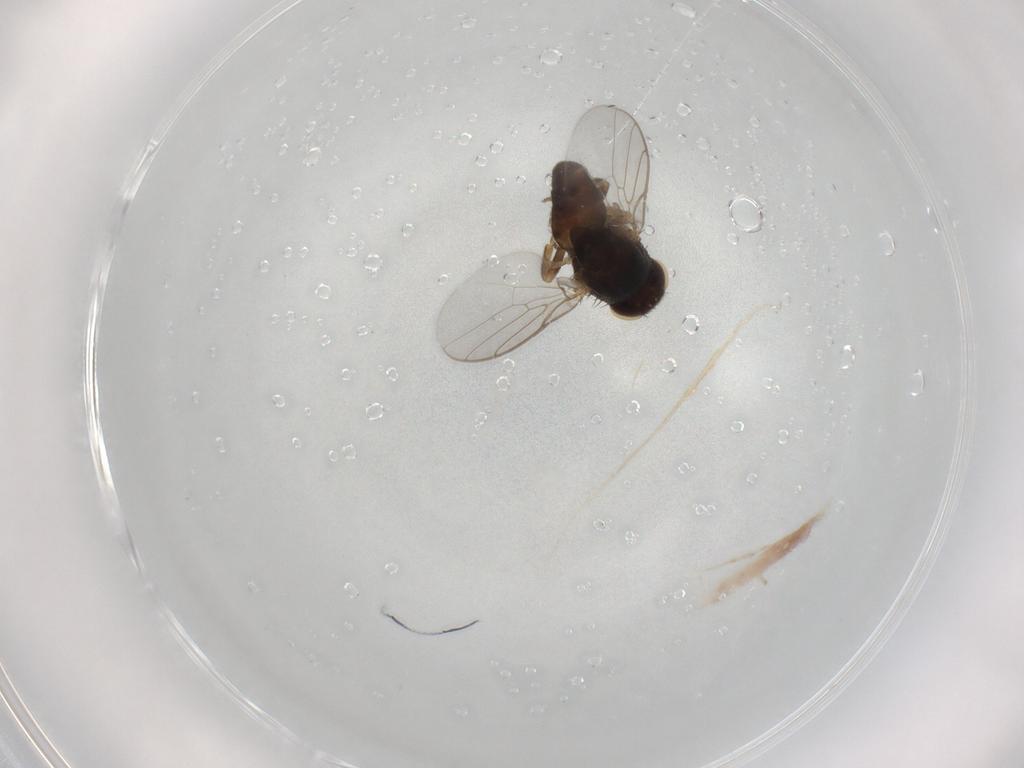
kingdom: Animalia
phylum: Arthropoda
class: Insecta
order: Diptera
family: Chloropidae
